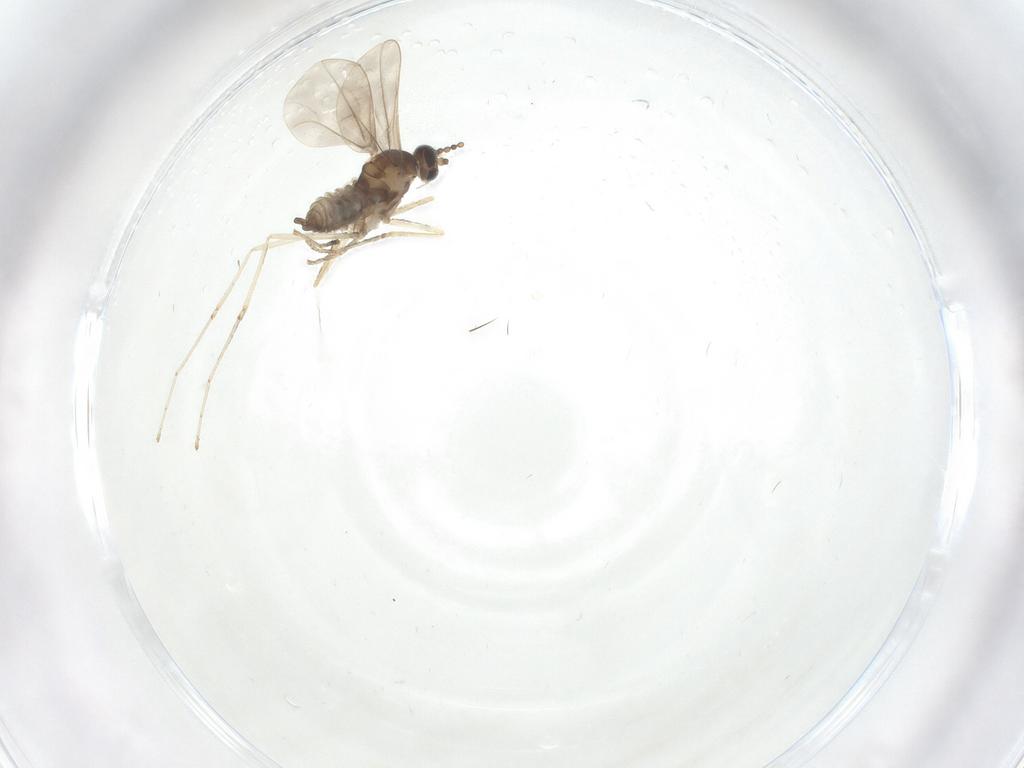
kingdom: Animalia
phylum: Arthropoda
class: Insecta
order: Diptera
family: Cecidomyiidae
